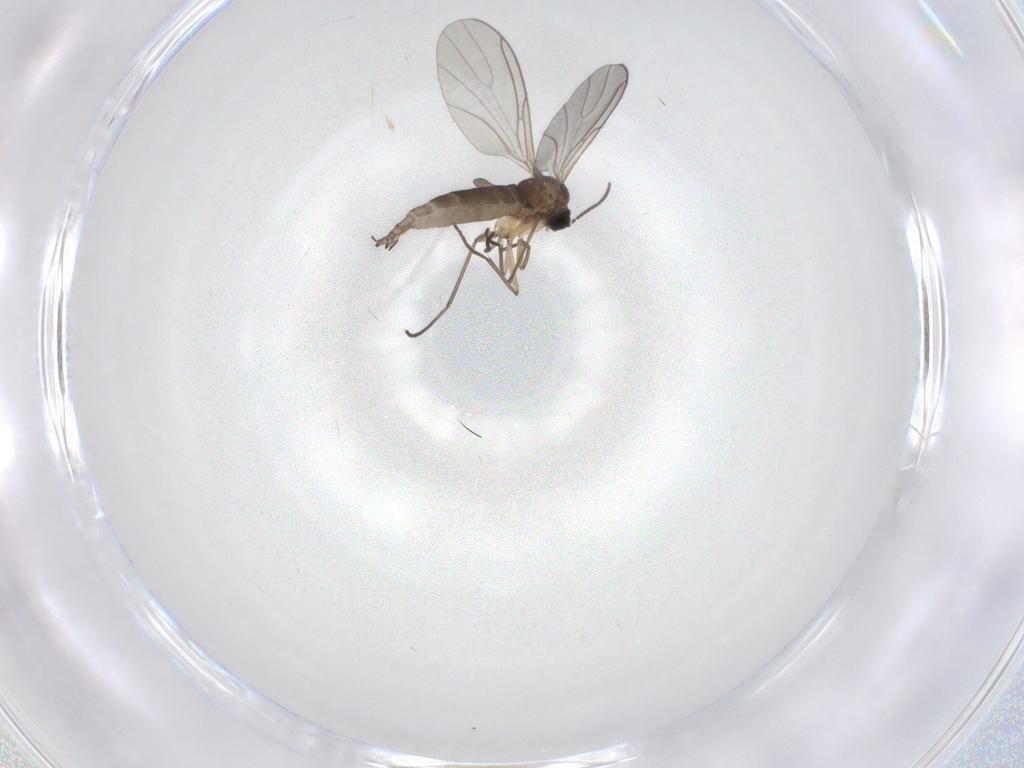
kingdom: Animalia
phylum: Arthropoda
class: Insecta
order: Diptera
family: Sciaridae
